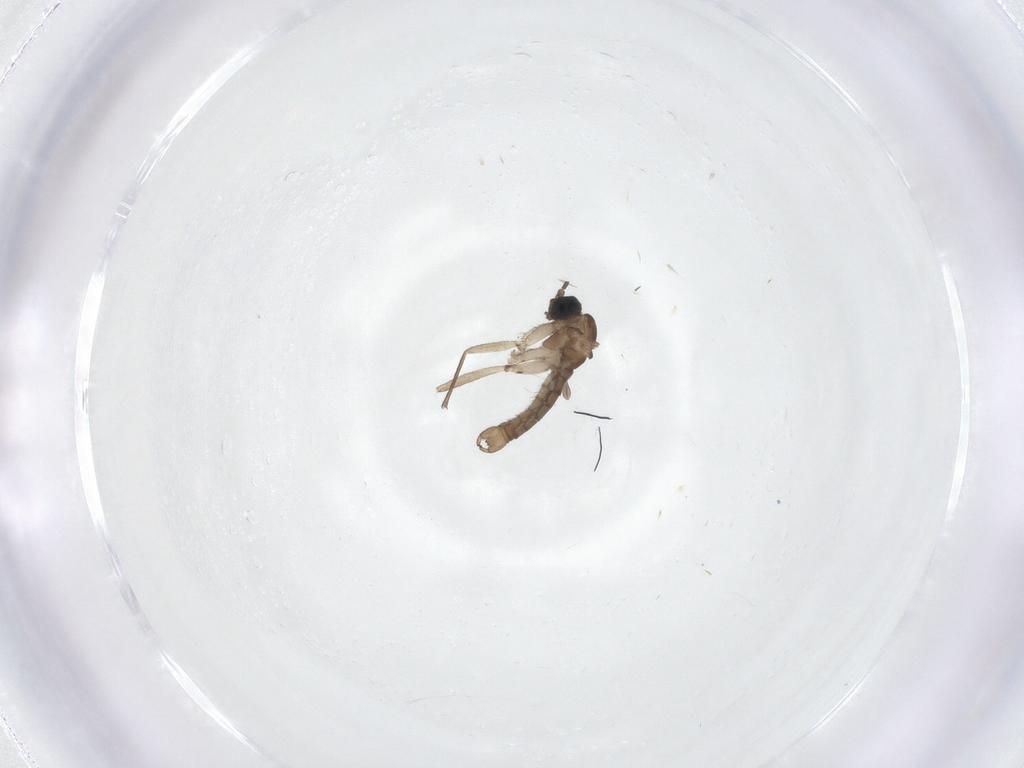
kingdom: Animalia
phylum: Arthropoda
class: Insecta
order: Diptera
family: Sciaridae
